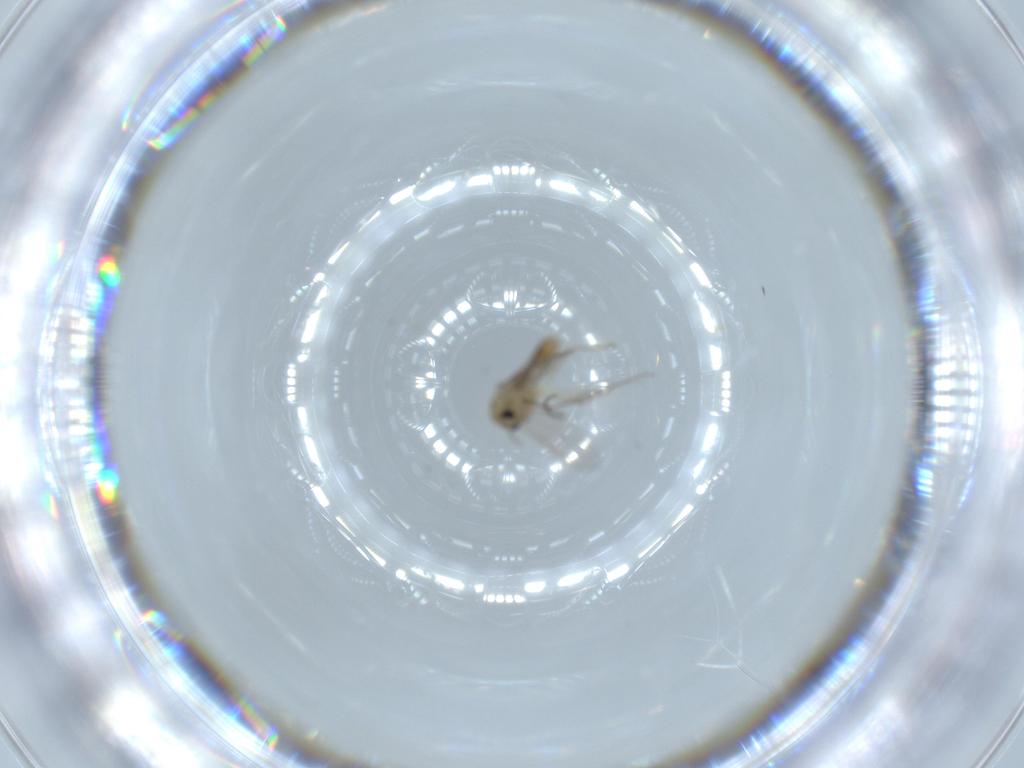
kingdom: Animalia
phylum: Arthropoda
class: Insecta
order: Diptera
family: Chironomidae
